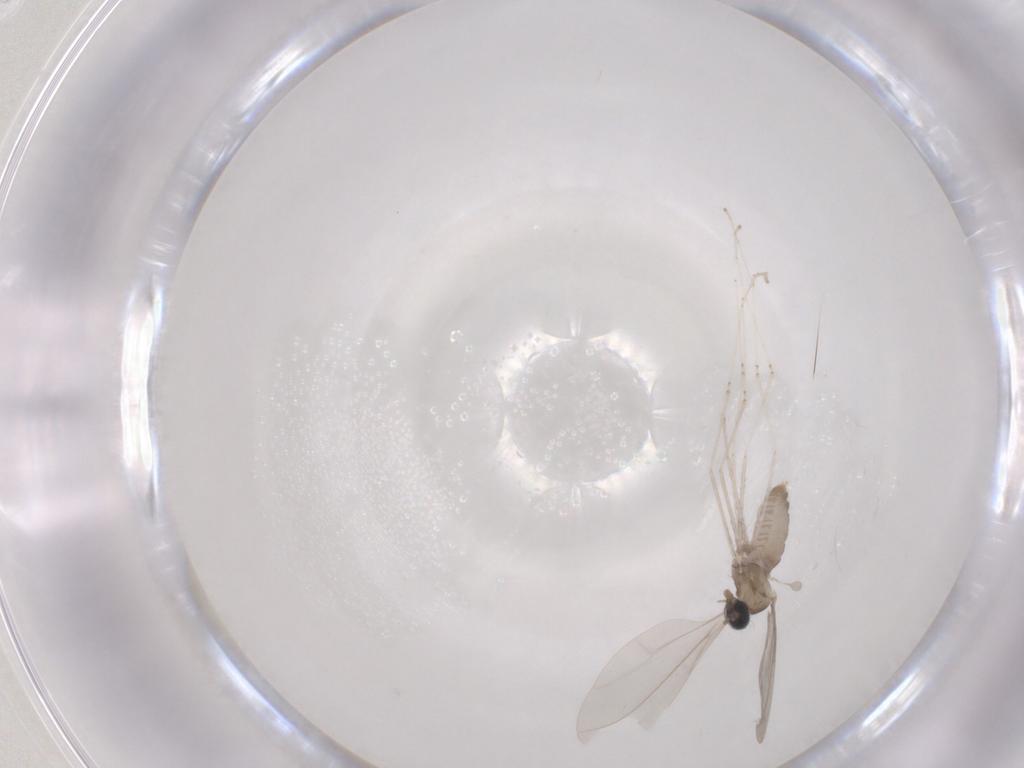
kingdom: Animalia
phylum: Arthropoda
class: Insecta
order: Diptera
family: Cecidomyiidae
